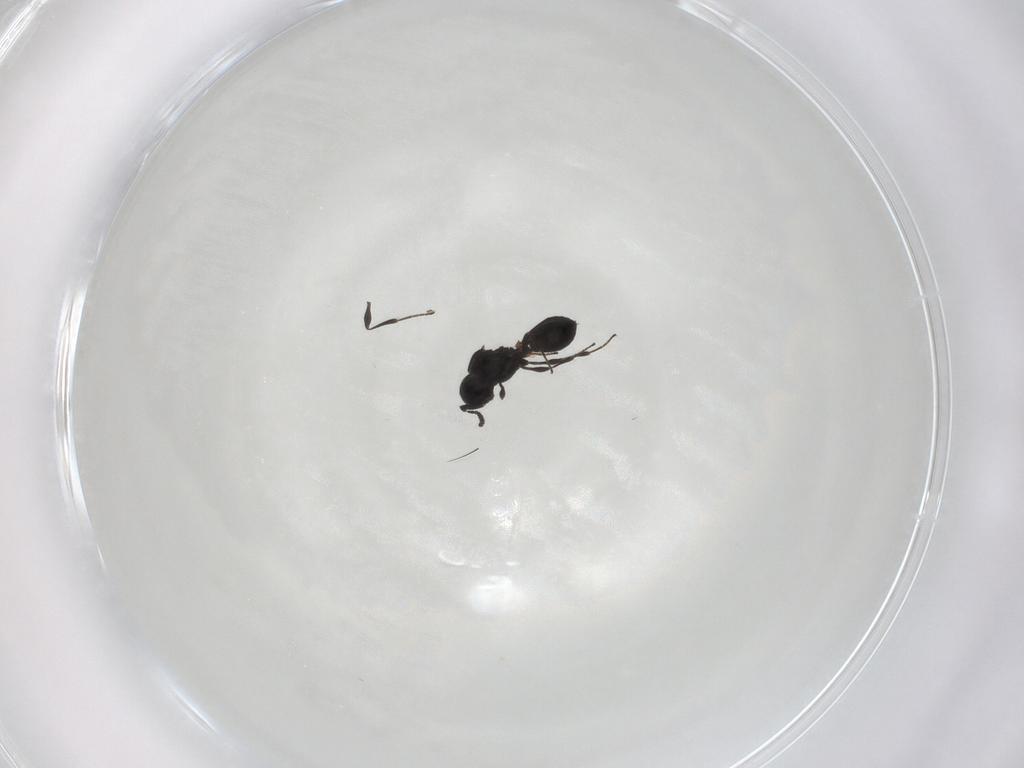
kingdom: Animalia
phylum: Arthropoda
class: Insecta
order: Hymenoptera
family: Platygastridae
